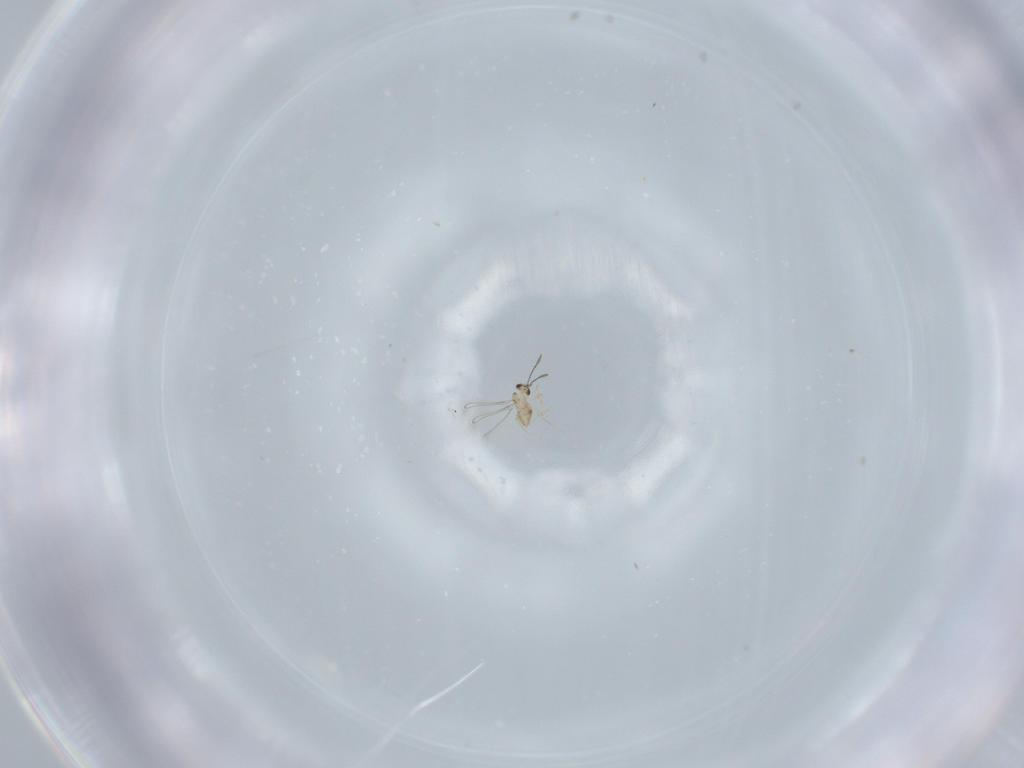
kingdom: Animalia
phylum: Arthropoda
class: Insecta
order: Hymenoptera
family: Mymaridae
